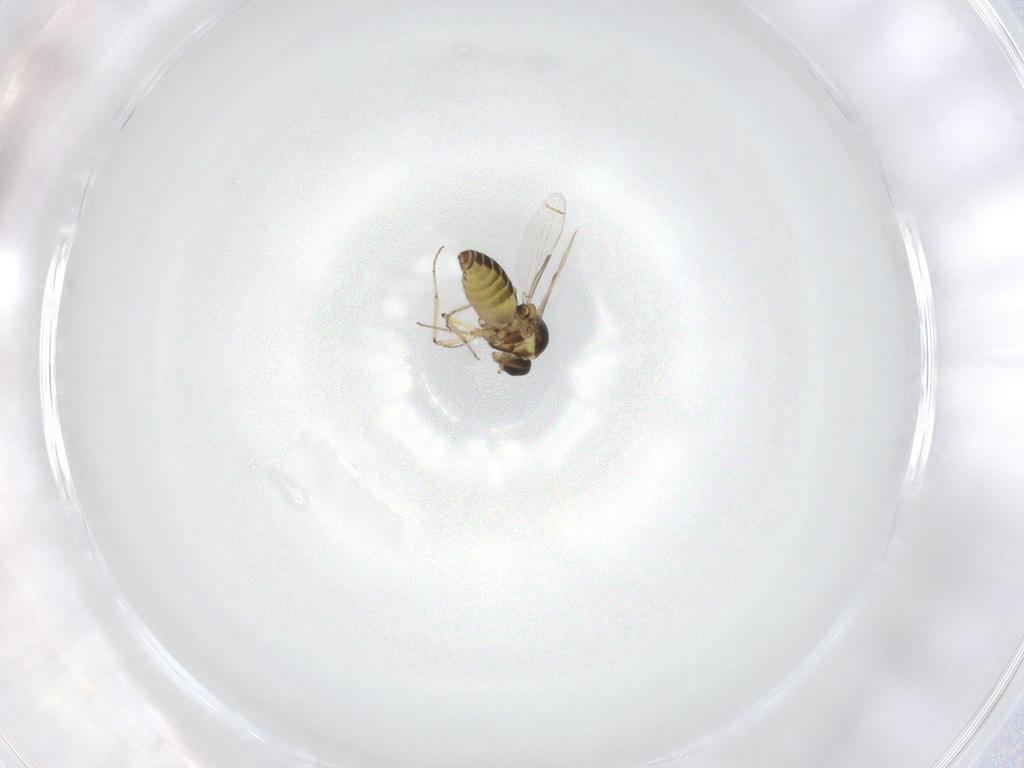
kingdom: Animalia
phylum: Arthropoda
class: Insecta
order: Diptera
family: Ceratopogonidae
